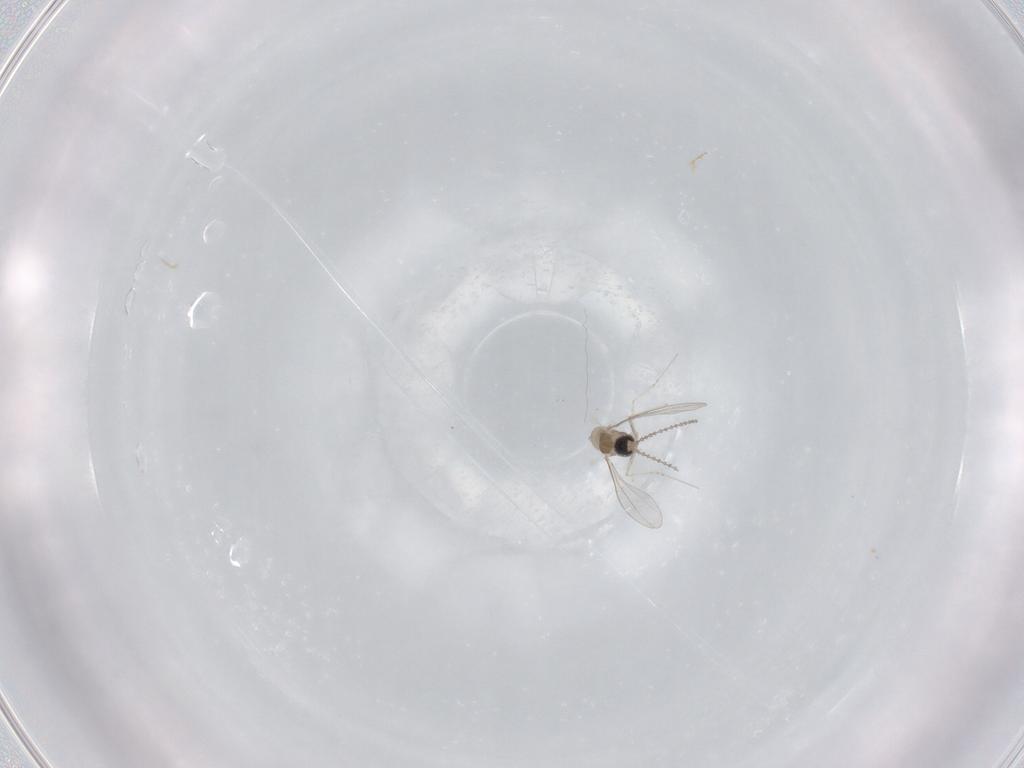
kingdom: Animalia
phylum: Arthropoda
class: Insecta
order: Diptera
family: Cecidomyiidae
